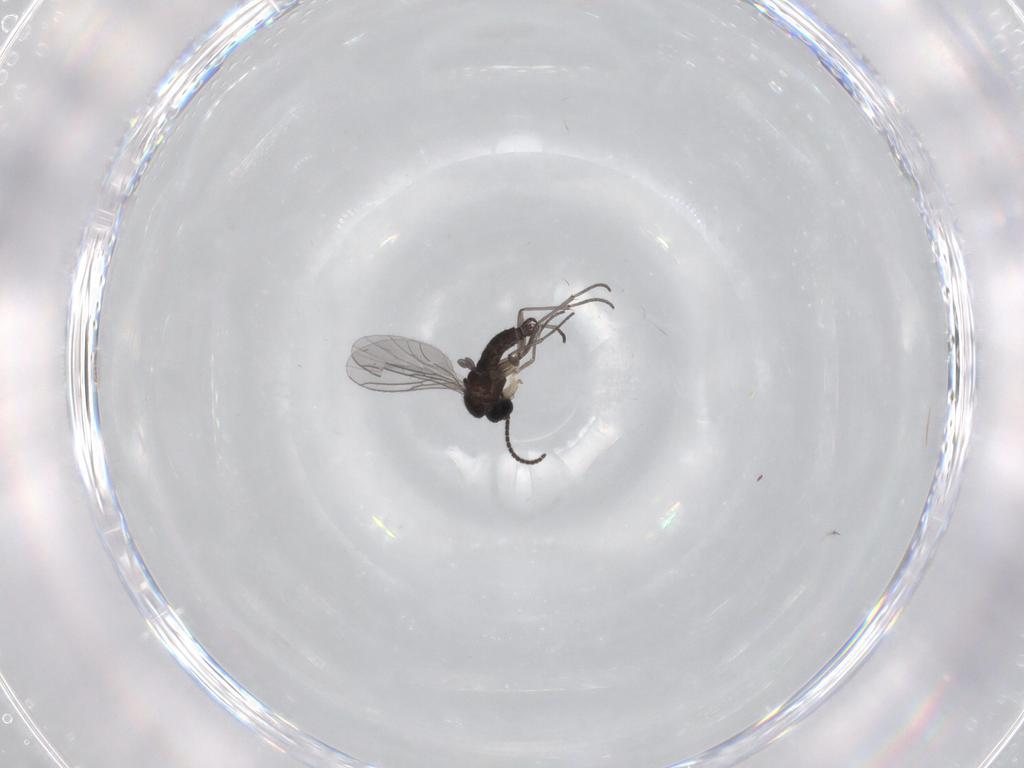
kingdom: Animalia
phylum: Arthropoda
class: Insecta
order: Diptera
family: Sciaridae
